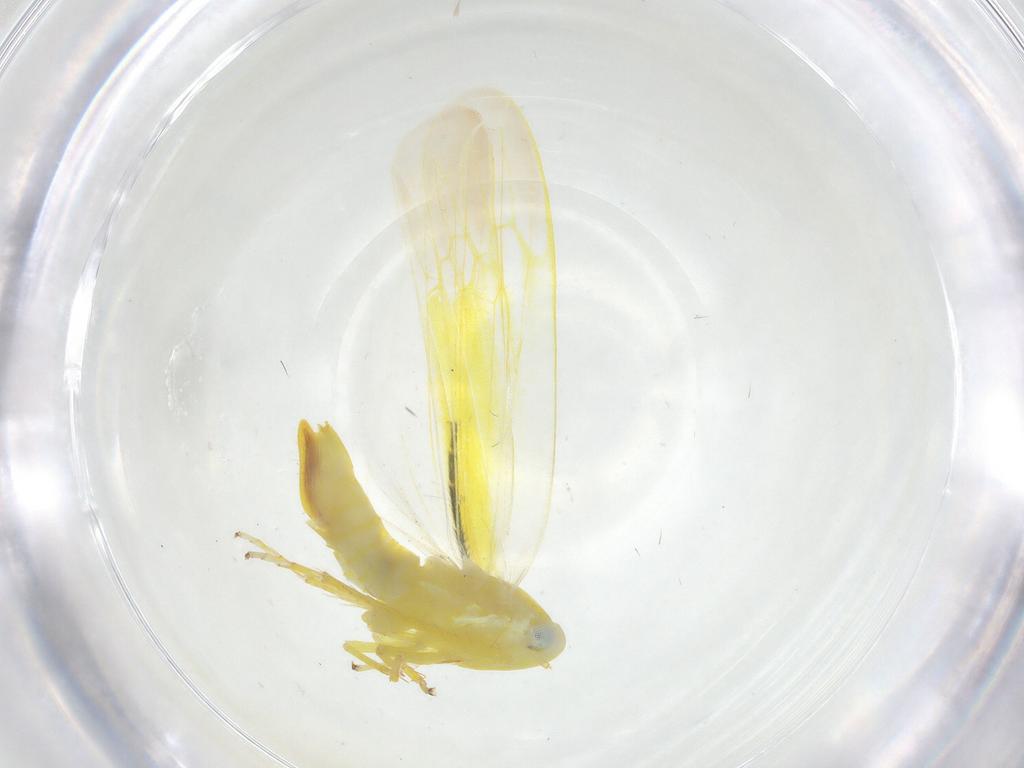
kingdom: Animalia
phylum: Arthropoda
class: Insecta
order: Hemiptera
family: Cicadellidae
